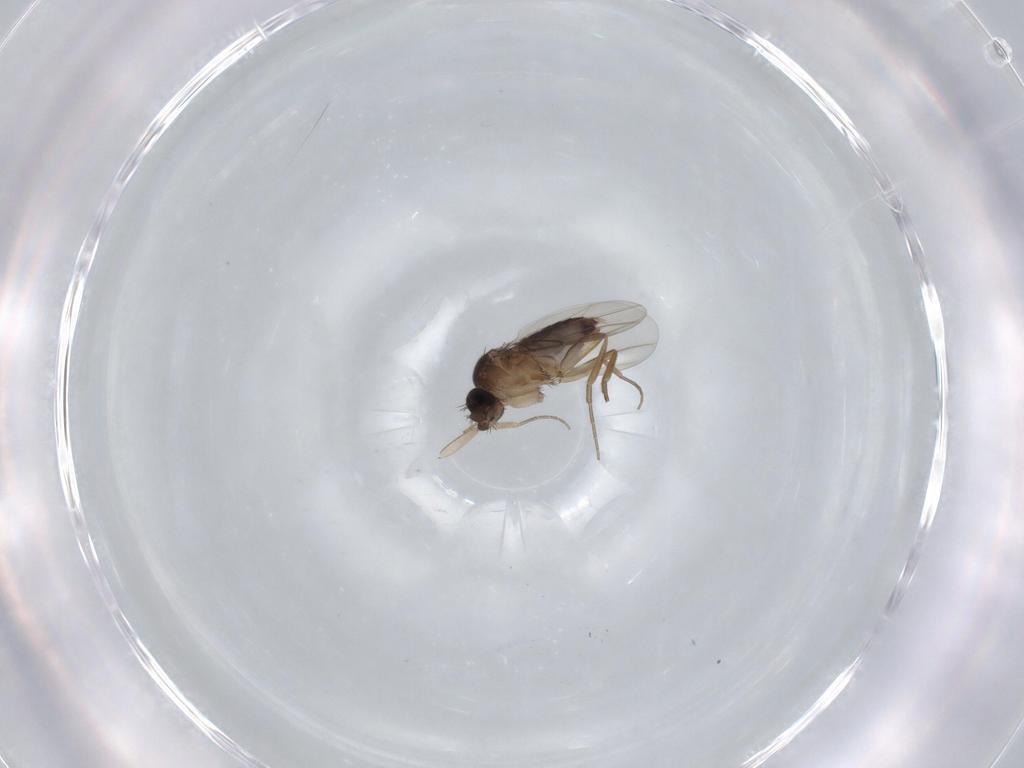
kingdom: Animalia
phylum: Arthropoda
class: Insecta
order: Diptera
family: Phoridae
